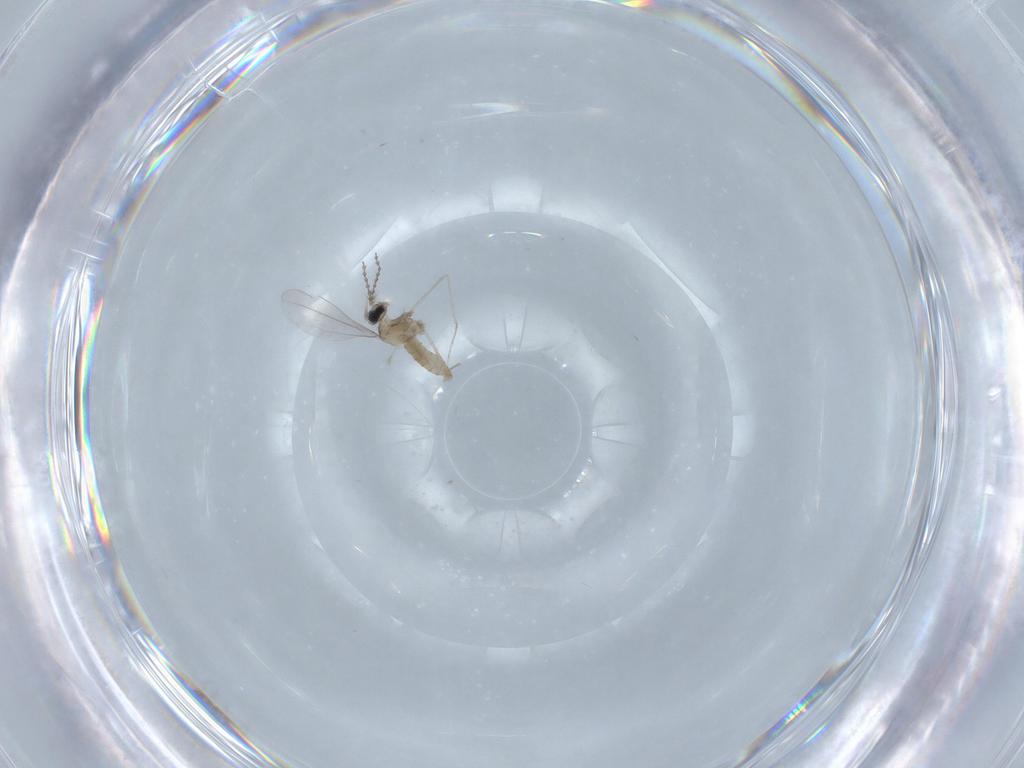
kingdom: Animalia
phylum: Arthropoda
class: Insecta
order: Diptera
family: Cecidomyiidae
